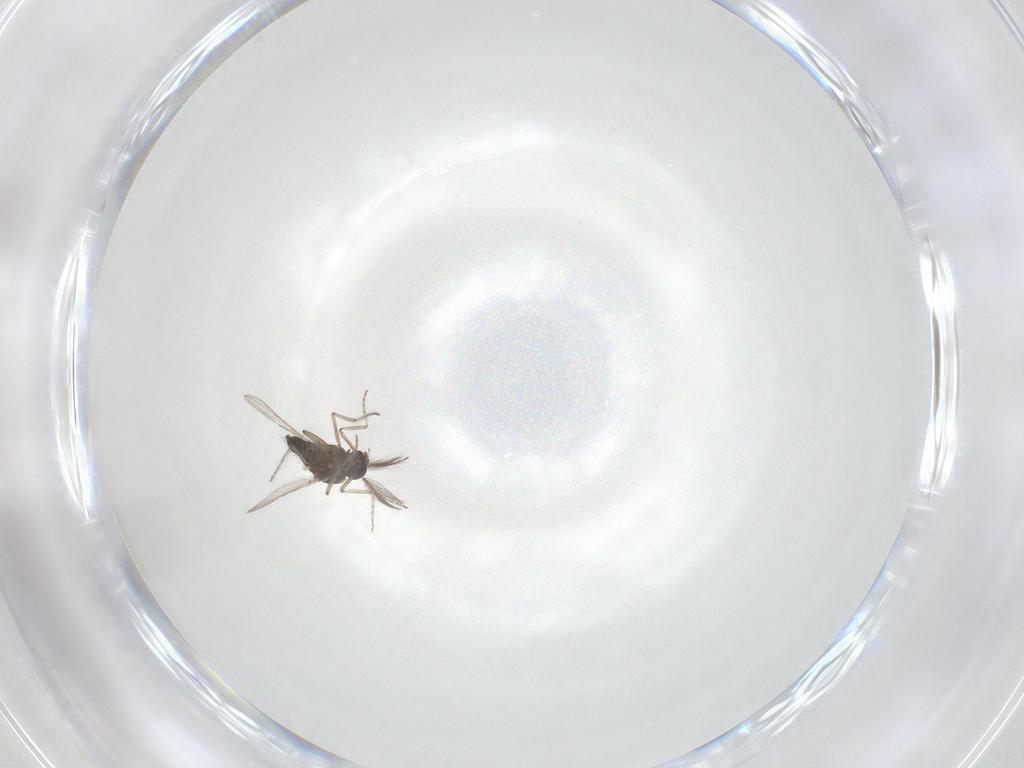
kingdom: Animalia
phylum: Arthropoda
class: Insecta
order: Diptera
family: Ceratopogonidae
